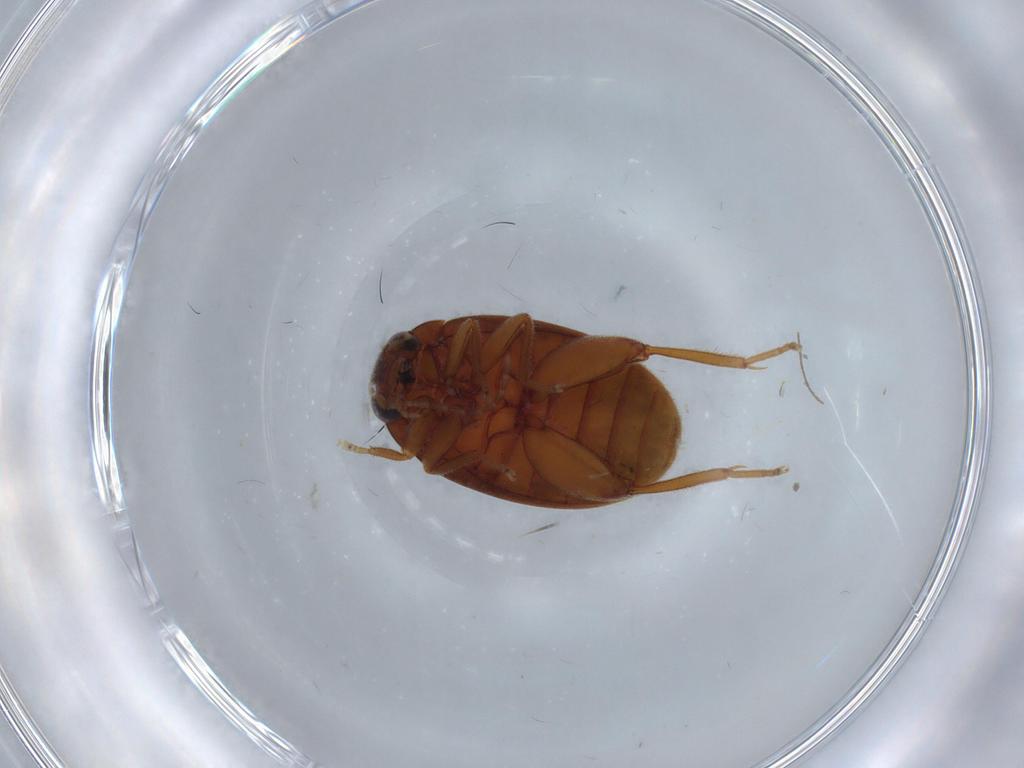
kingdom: Animalia
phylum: Arthropoda
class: Insecta
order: Coleoptera
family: Scirtidae
